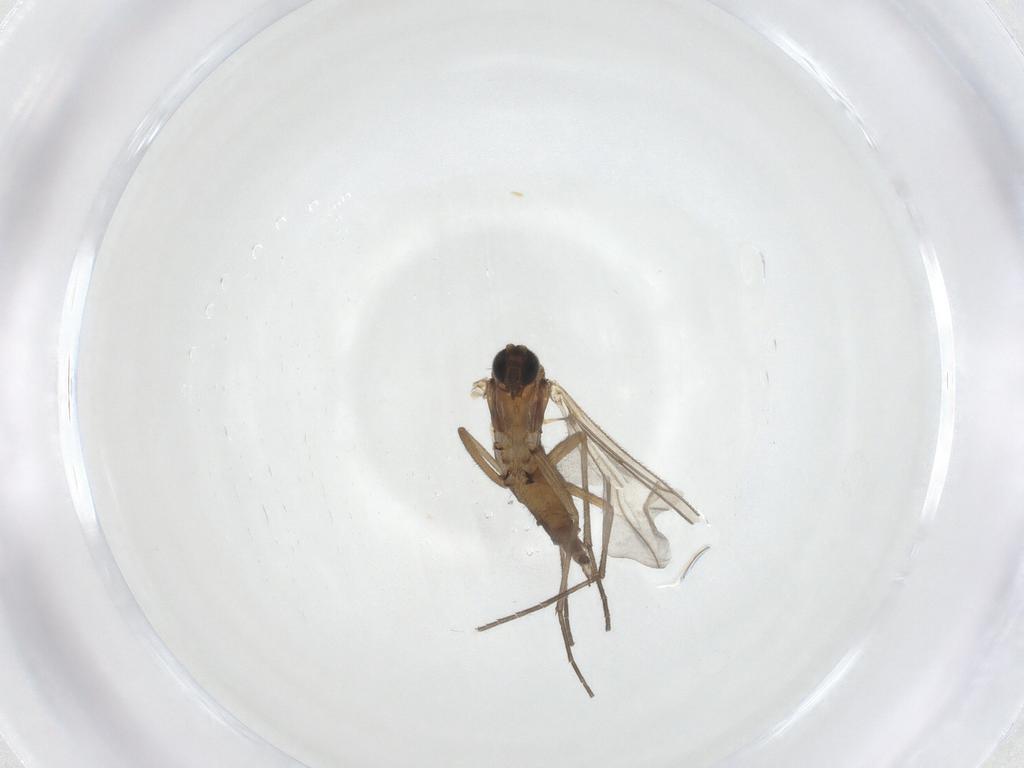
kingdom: Animalia
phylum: Arthropoda
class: Insecta
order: Diptera
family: Sciaridae
